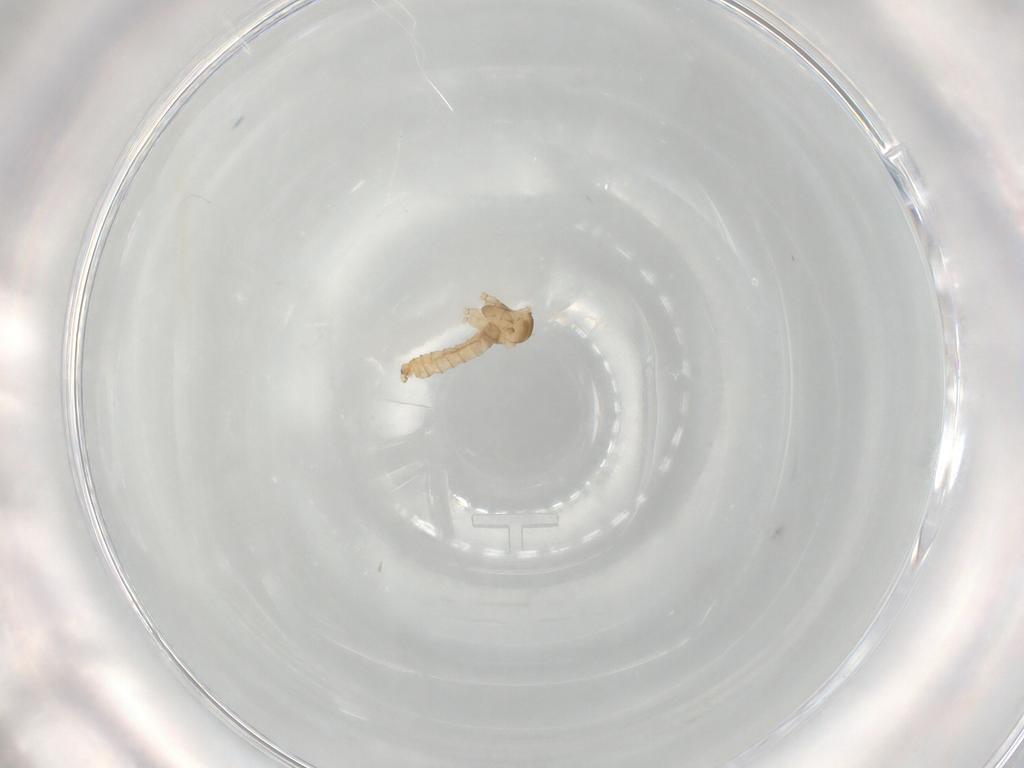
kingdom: Animalia
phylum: Arthropoda
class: Insecta
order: Diptera
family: Cecidomyiidae
